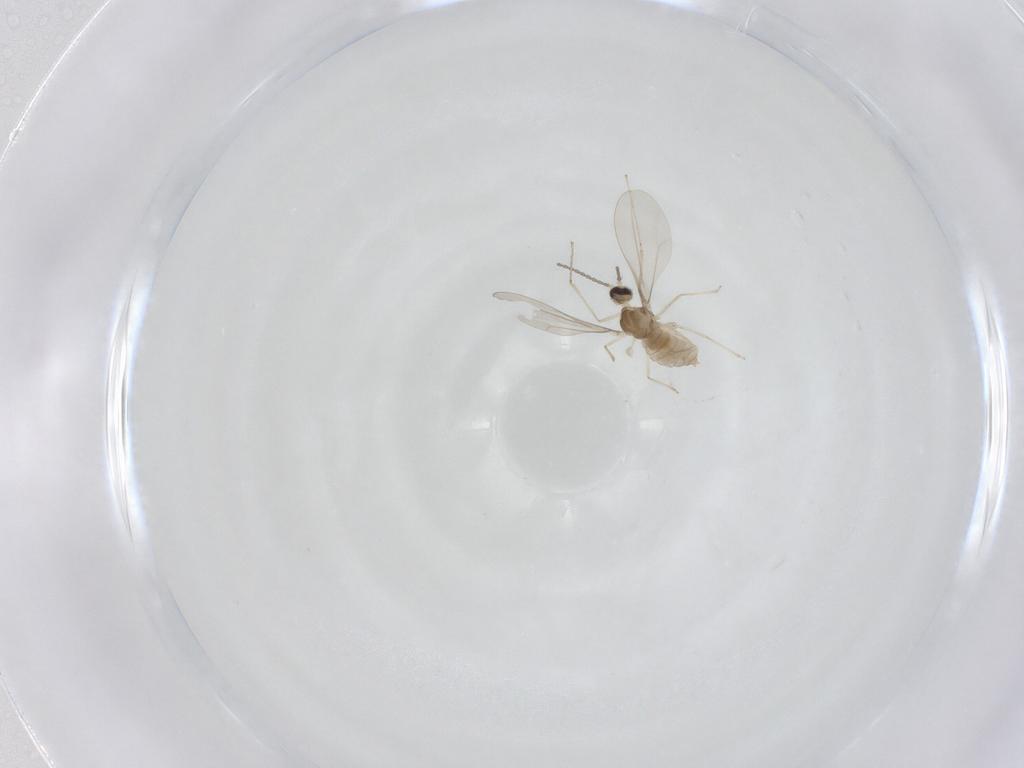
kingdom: Animalia
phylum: Arthropoda
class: Insecta
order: Diptera
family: Cecidomyiidae
